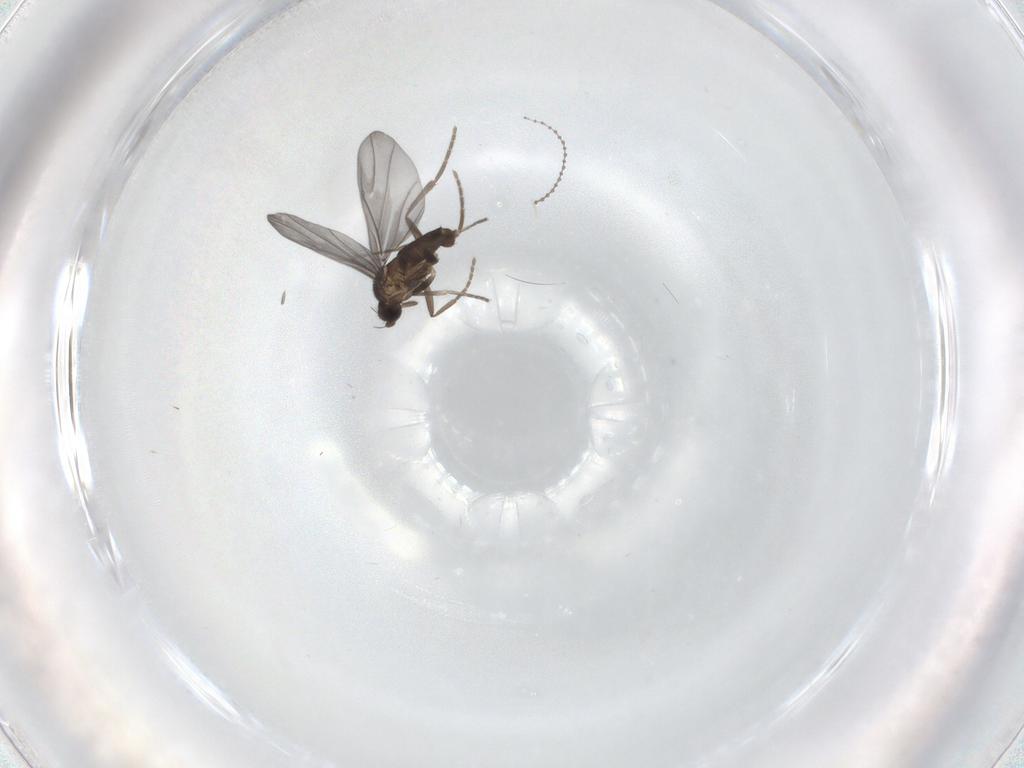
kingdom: Animalia
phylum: Arthropoda
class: Insecta
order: Diptera
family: Phoridae
